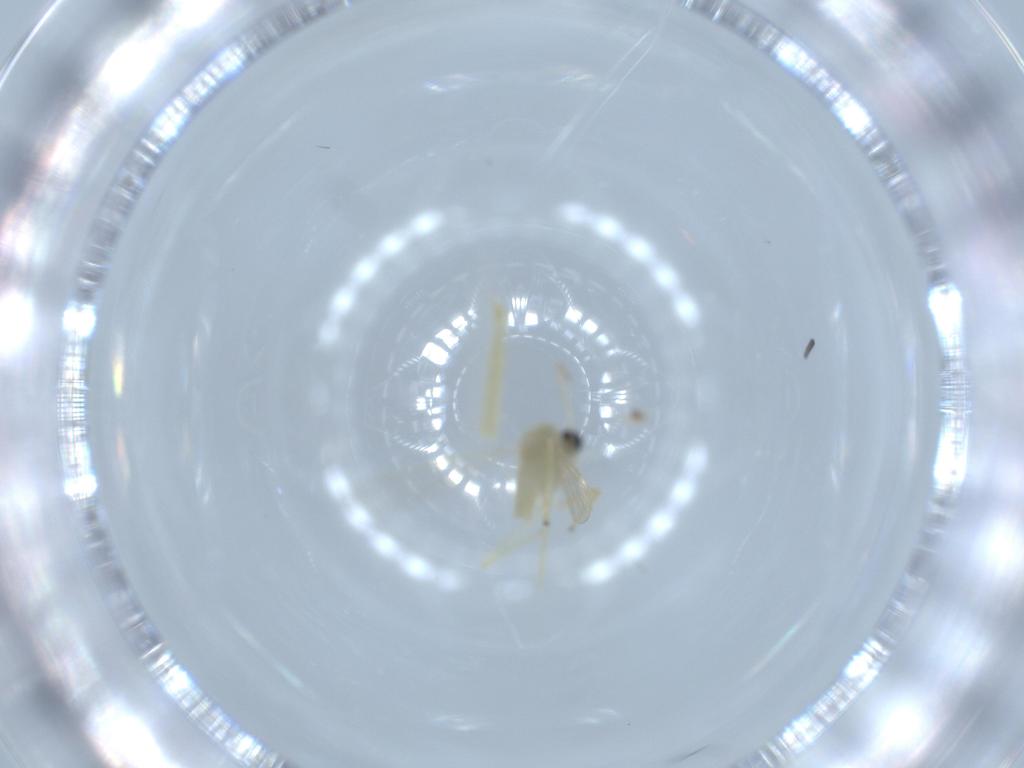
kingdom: Animalia
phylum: Arthropoda
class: Insecta
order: Diptera
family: Chironomidae
